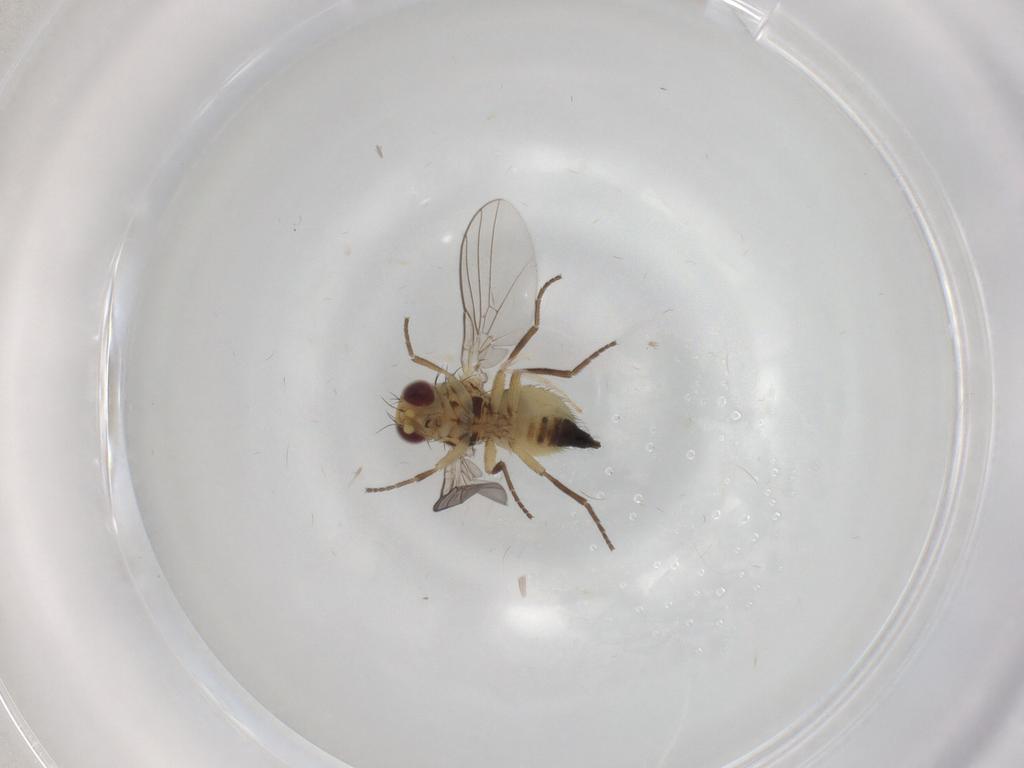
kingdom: Animalia
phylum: Arthropoda
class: Insecta
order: Diptera
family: Agromyzidae
